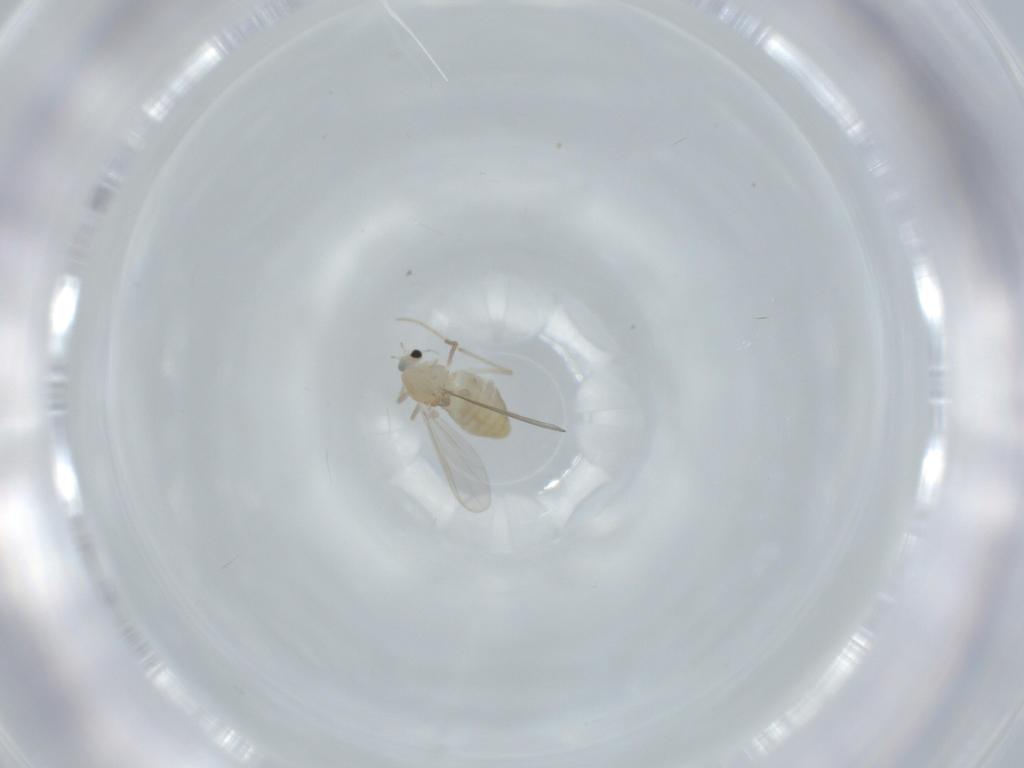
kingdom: Animalia
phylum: Arthropoda
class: Insecta
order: Diptera
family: Chironomidae
